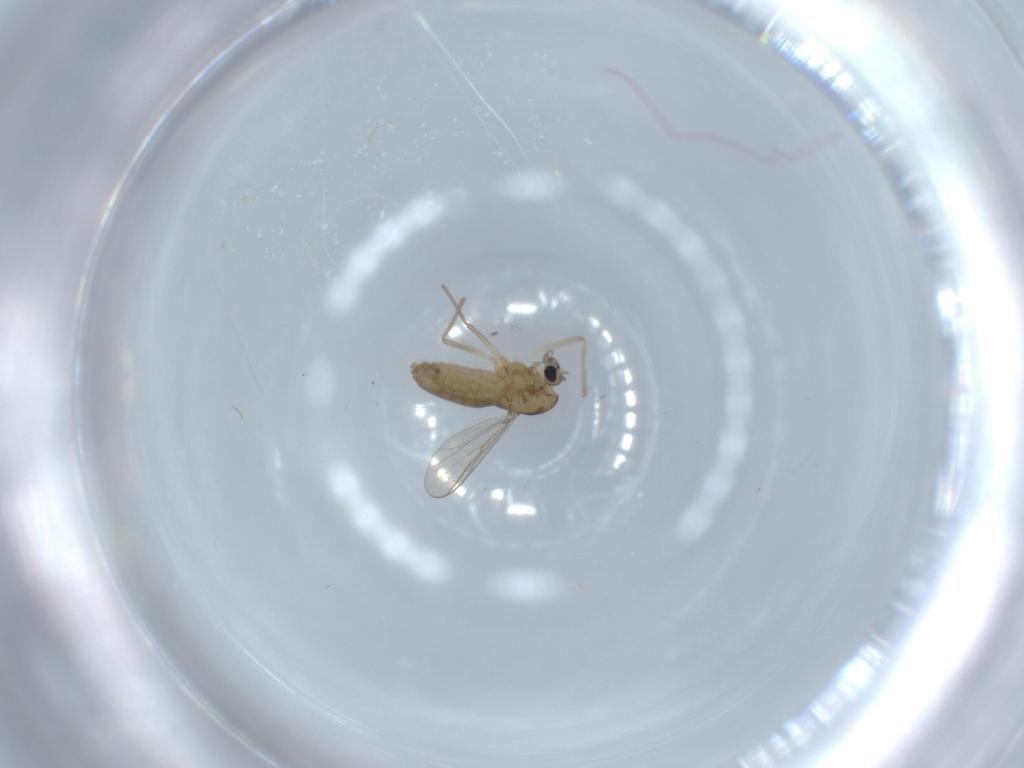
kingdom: Animalia
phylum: Arthropoda
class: Insecta
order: Diptera
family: Chironomidae
